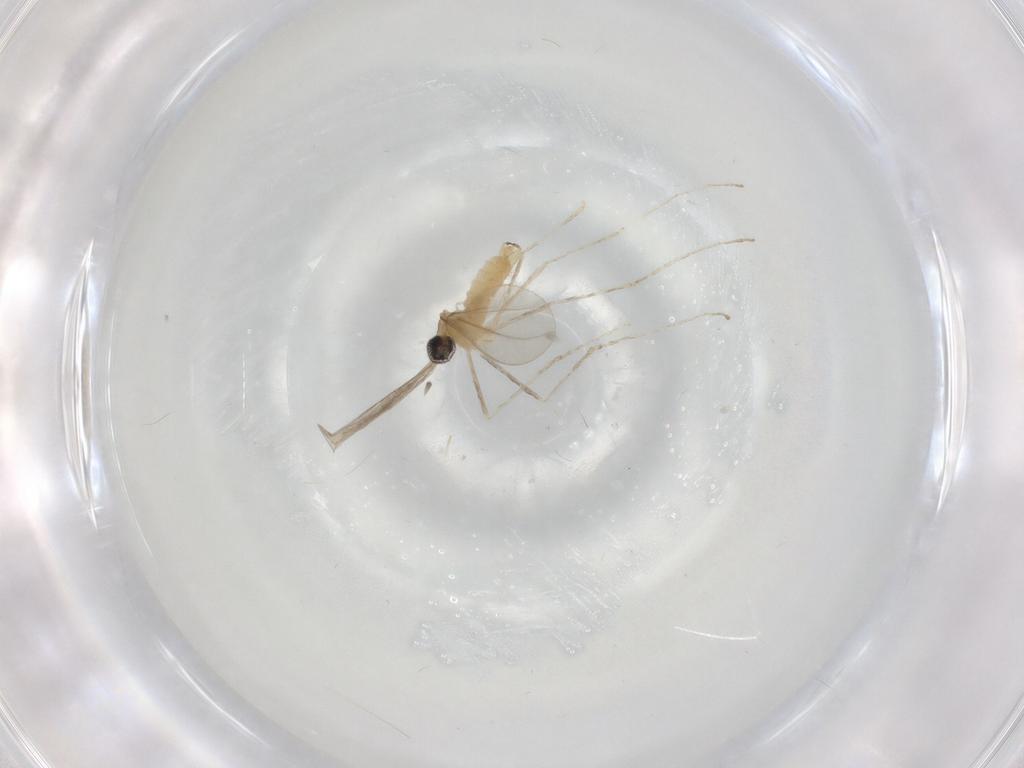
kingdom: Animalia
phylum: Arthropoda
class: Insecta
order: Diptera
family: Cecidomyiidae
